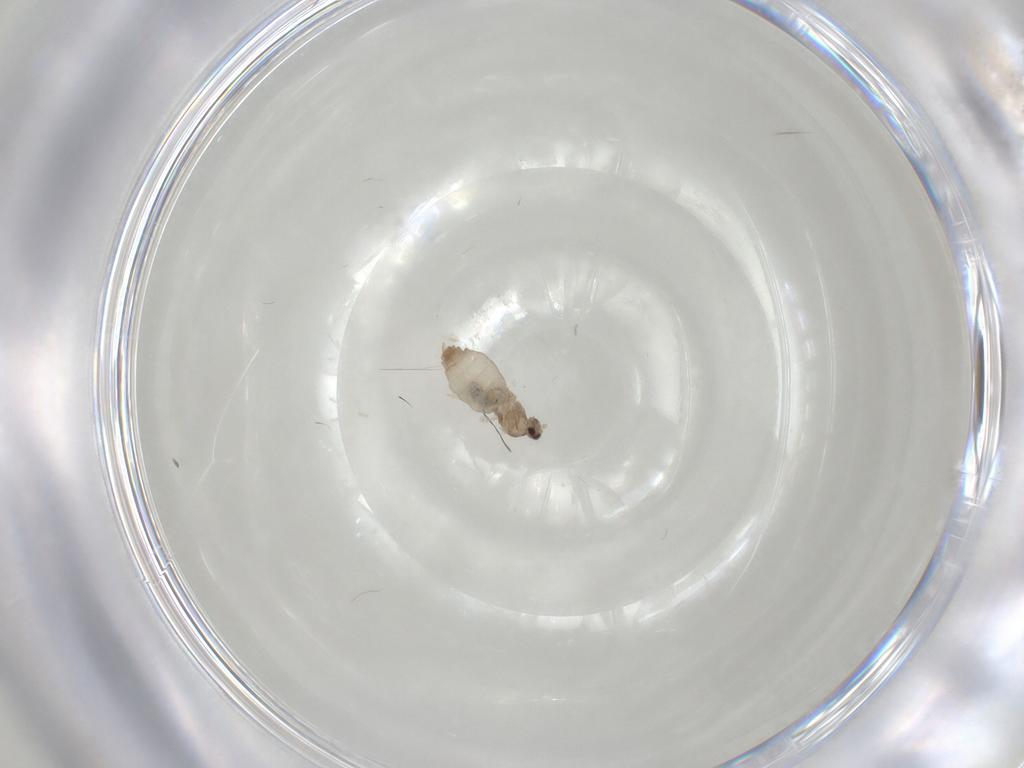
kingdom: Animalia
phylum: Arthropoda
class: Insecta
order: Diptera
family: Cecidomyiidae
